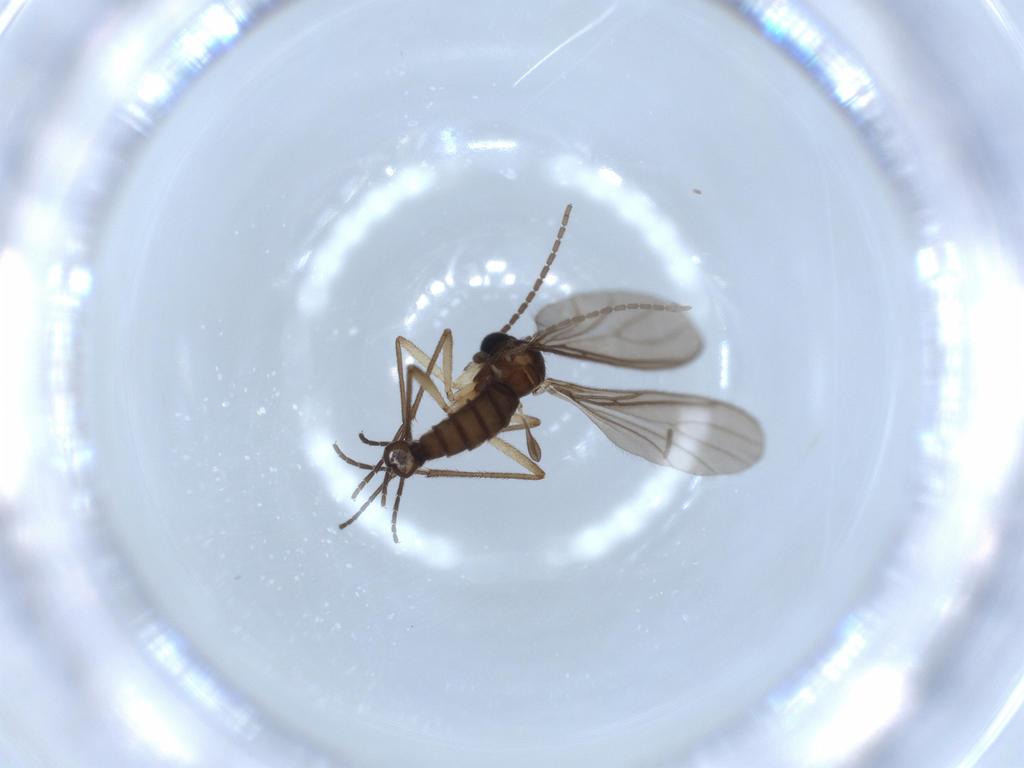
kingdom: Animalia
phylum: Arthropoda
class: Insecta
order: Diptera
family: Sciaridae
